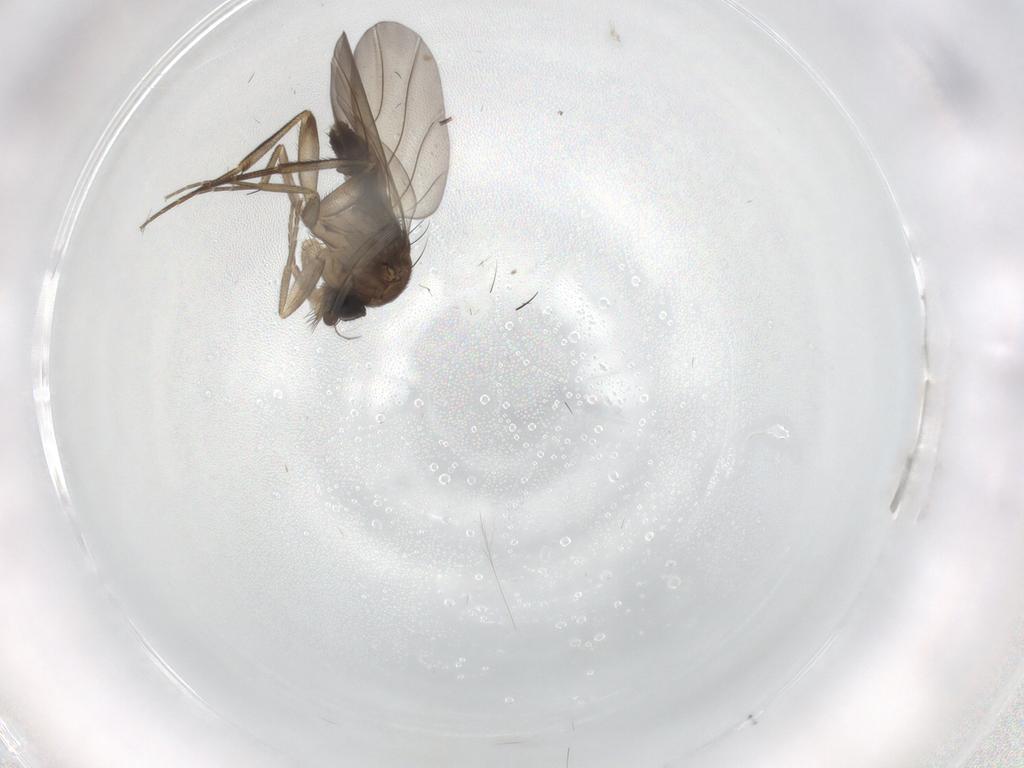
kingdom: Animalia
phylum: Arthropoda
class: Insecta
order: Diptera
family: Phoridae
